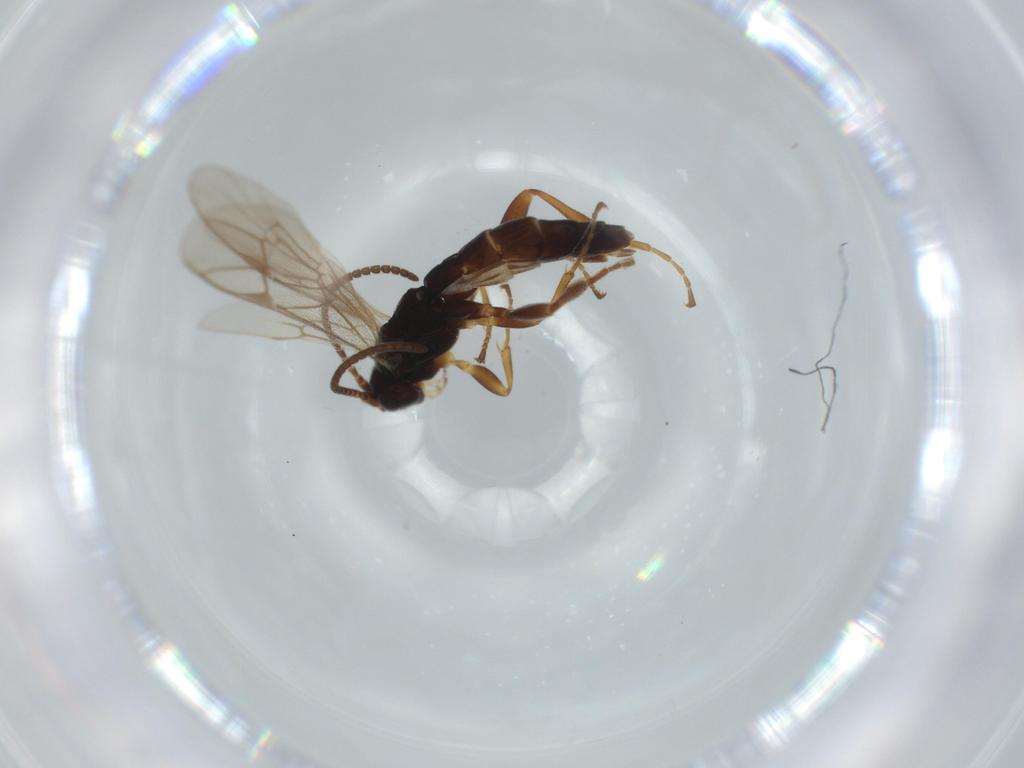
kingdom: Animalia
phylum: Arthropoda
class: Insecta
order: Hymenoptera
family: Ichneumonidae
